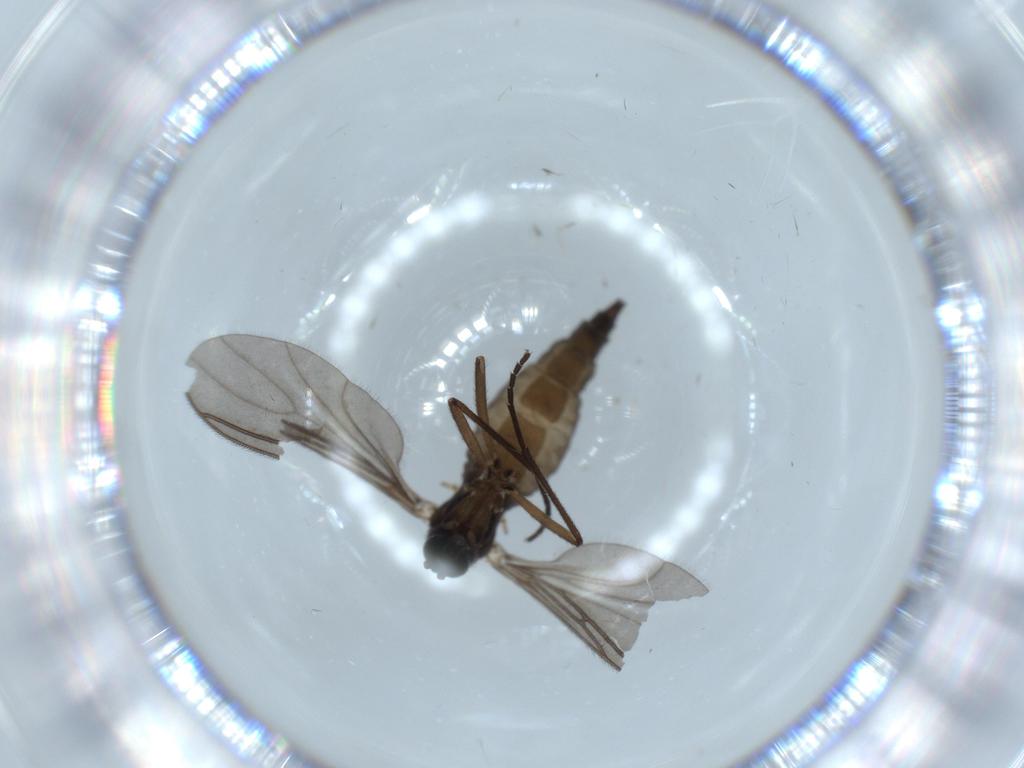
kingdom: Animalia
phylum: Arthropoda
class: Insecta
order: Diptera
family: Sciaridae
